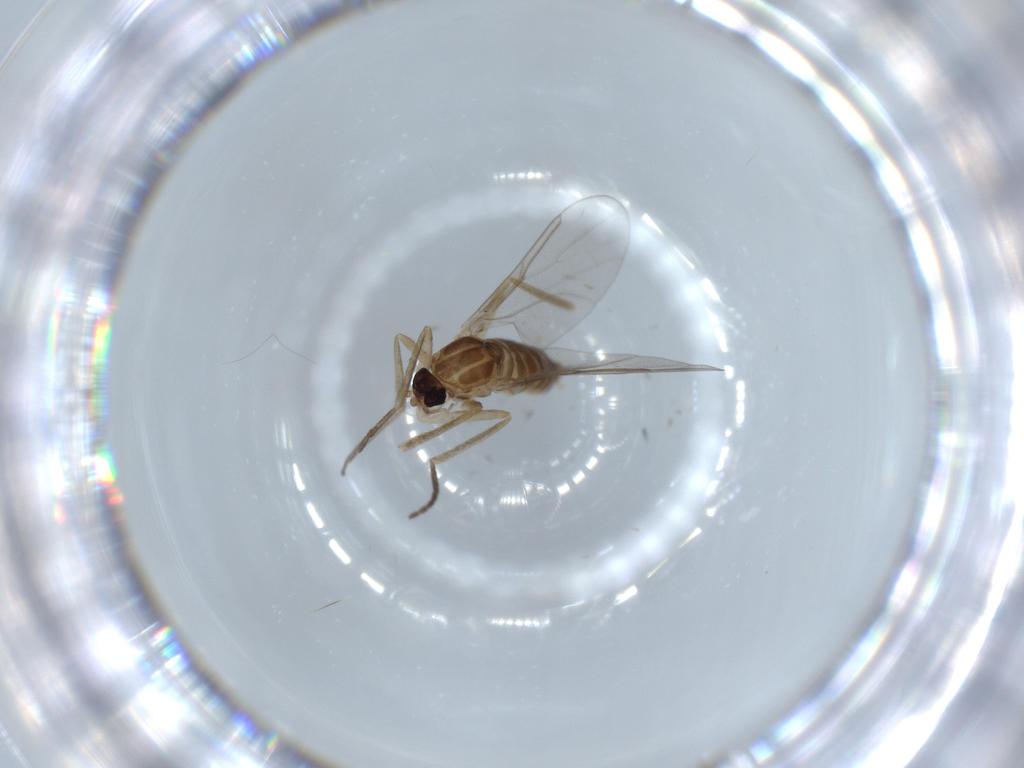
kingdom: Animalia
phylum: Arthropoda
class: Insecta
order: Diptera
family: Cecidomyiidae
